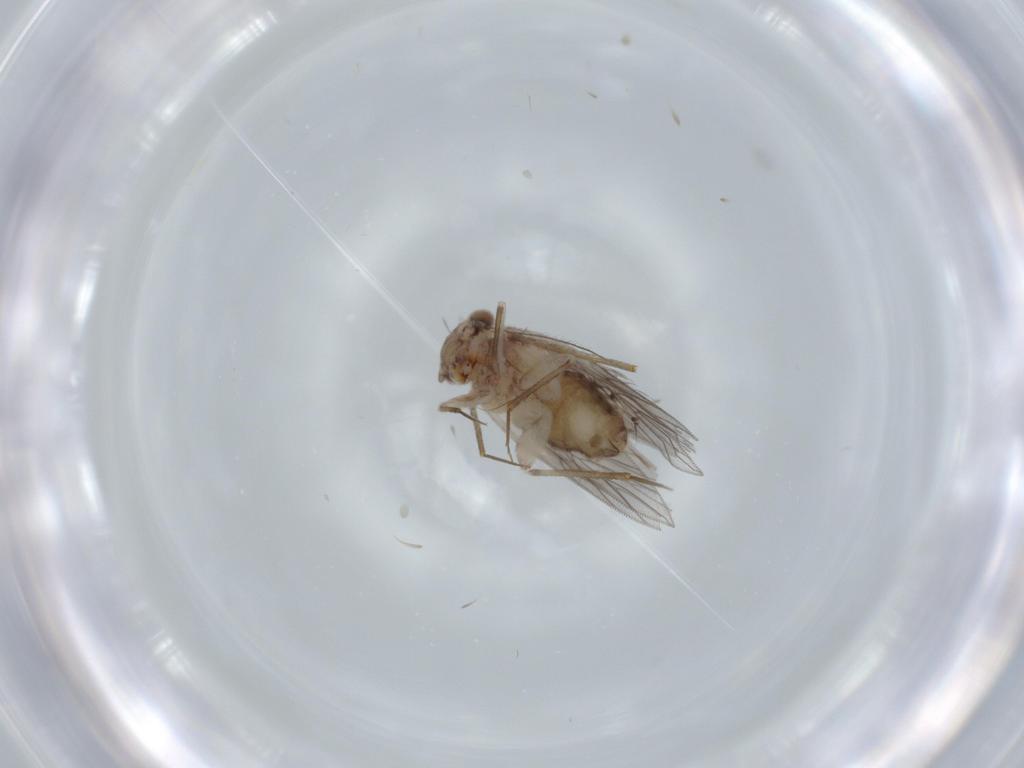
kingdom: Animalia
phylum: Arthropoda
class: Insecta
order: Psocodea
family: Lepidopsocidae
